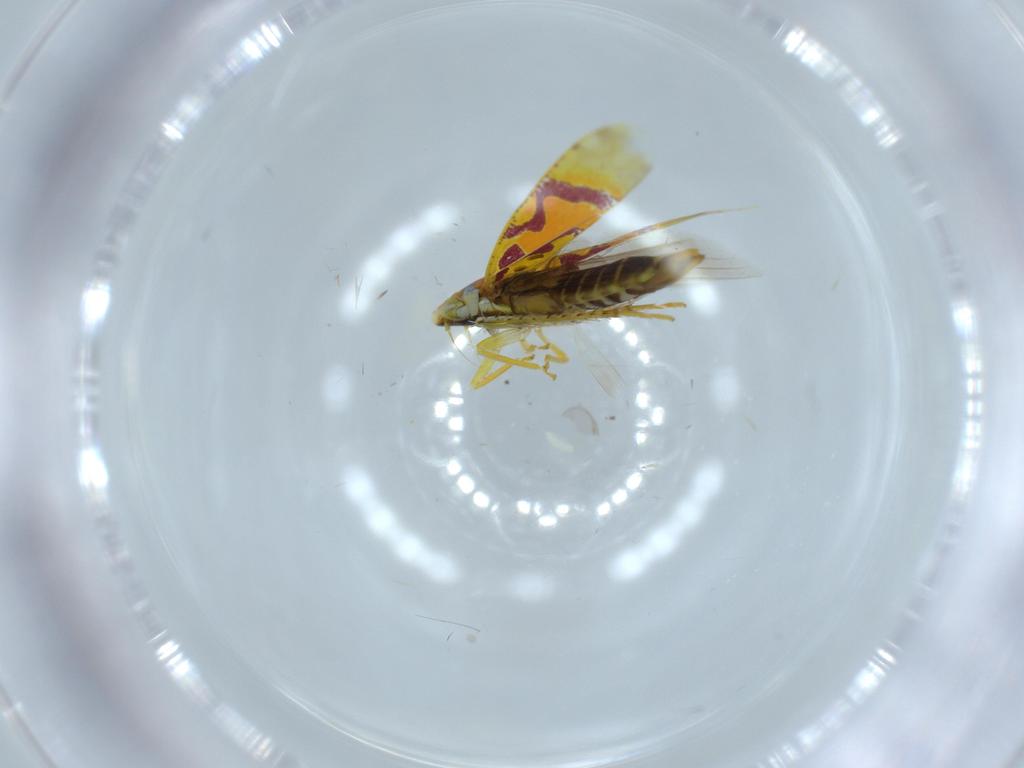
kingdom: Animalia
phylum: Arthropoda
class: Insecta
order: Hemiptera
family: Cicadellidae
